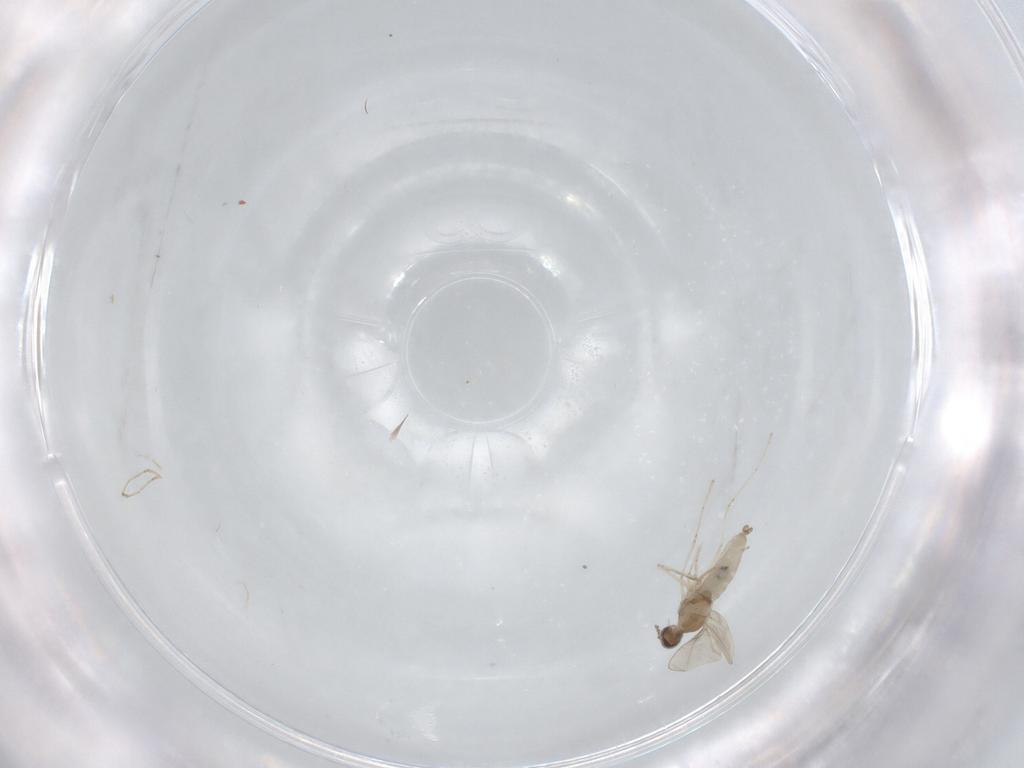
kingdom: Animalia
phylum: Arthropoda
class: Insecta
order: Diptera
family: Cecidomyiidae
